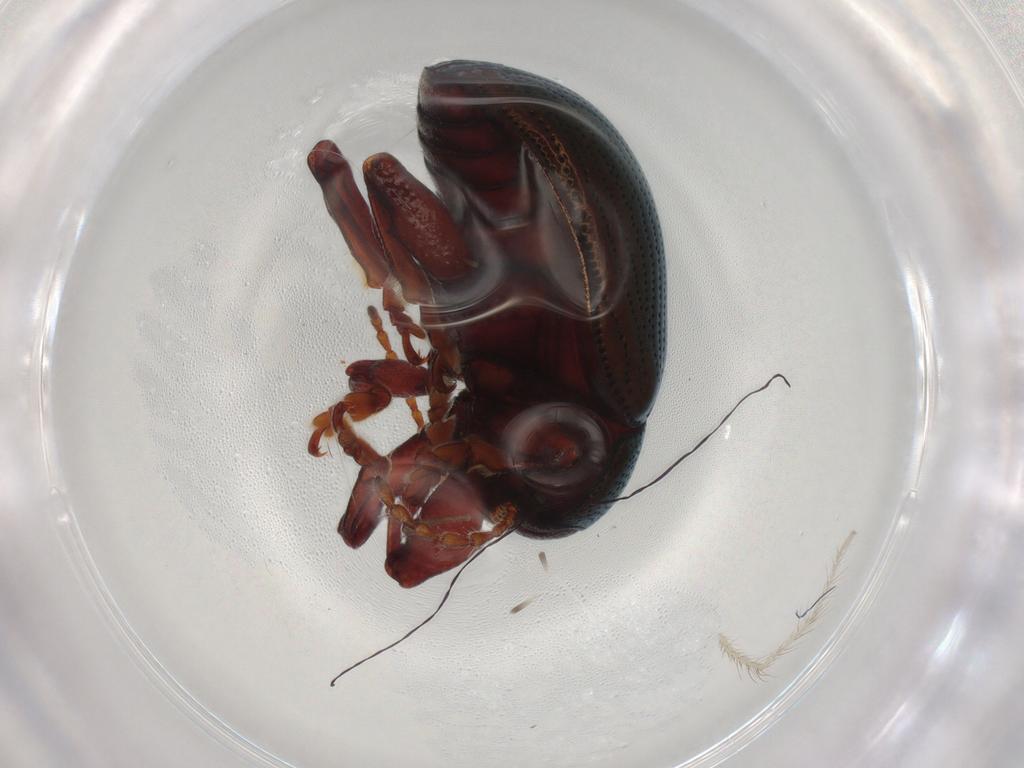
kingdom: Animalia
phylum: Arthropoda
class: Insecta
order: Coleoptera
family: Chrysomelidae
